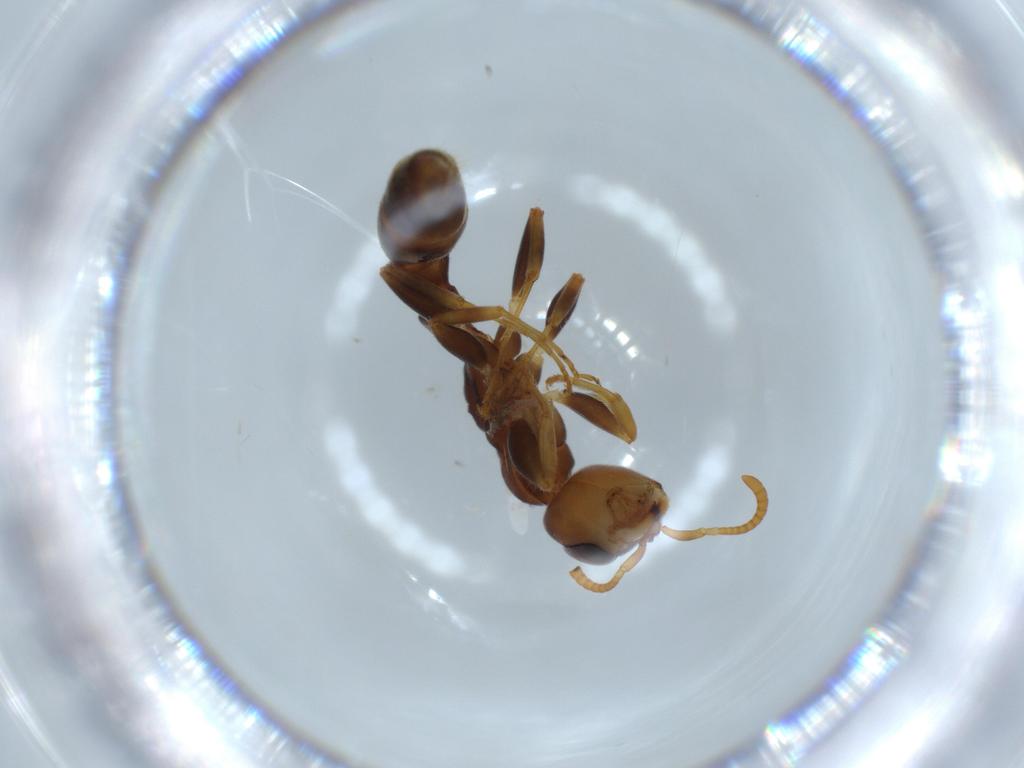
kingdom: Animalia
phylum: Arthropoda
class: Insecta
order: Hymenoptera
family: Formicidae
